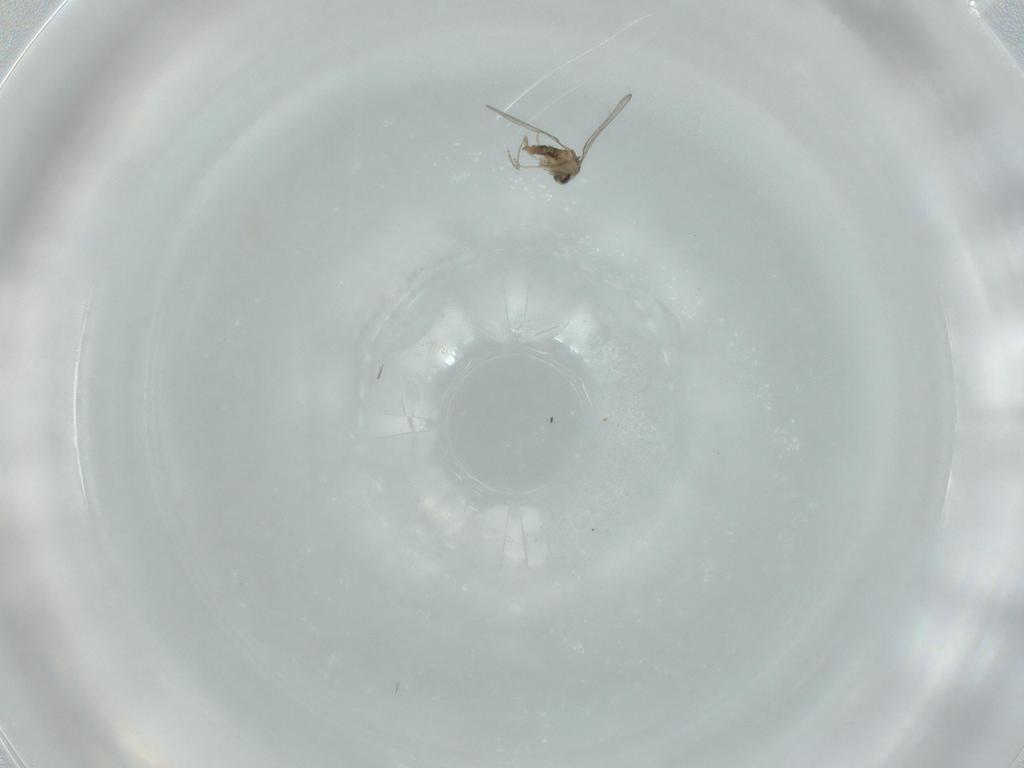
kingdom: Animalia
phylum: Arthropoda
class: Insecta
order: Diptera
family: Cecidomyiidae
